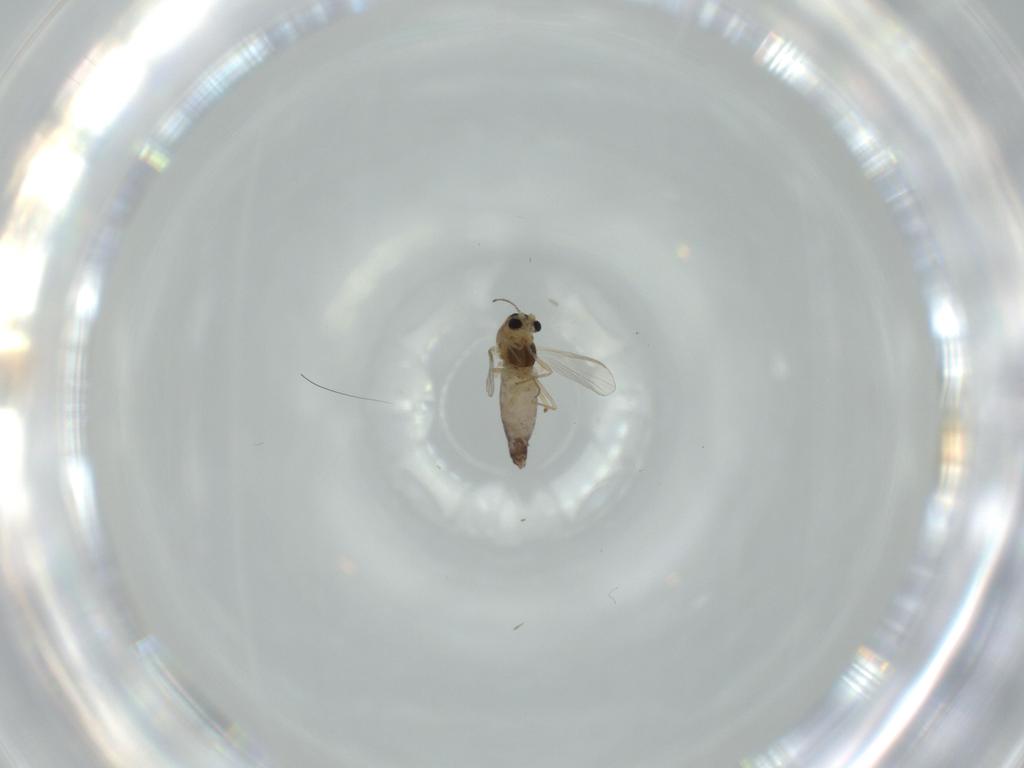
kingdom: Animalia
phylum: Arthropoda
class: Insecta
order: Diptera
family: Chironomidae
